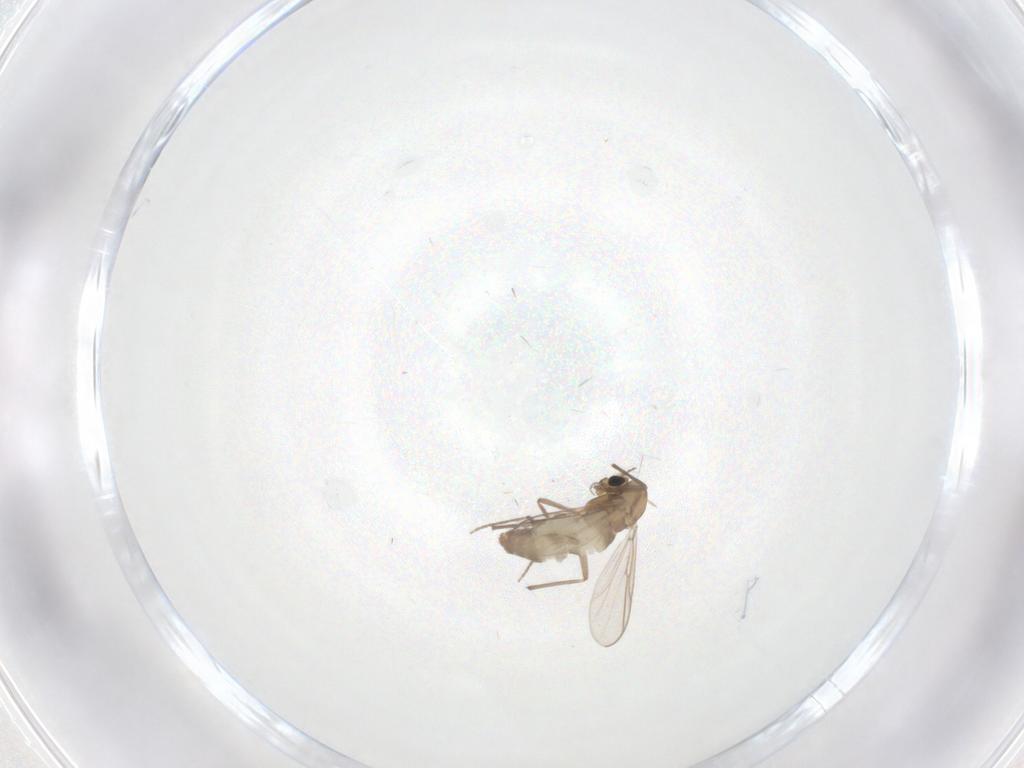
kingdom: Animalia
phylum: Arthropoda
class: Insecta
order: Diptera
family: Chironomidae
